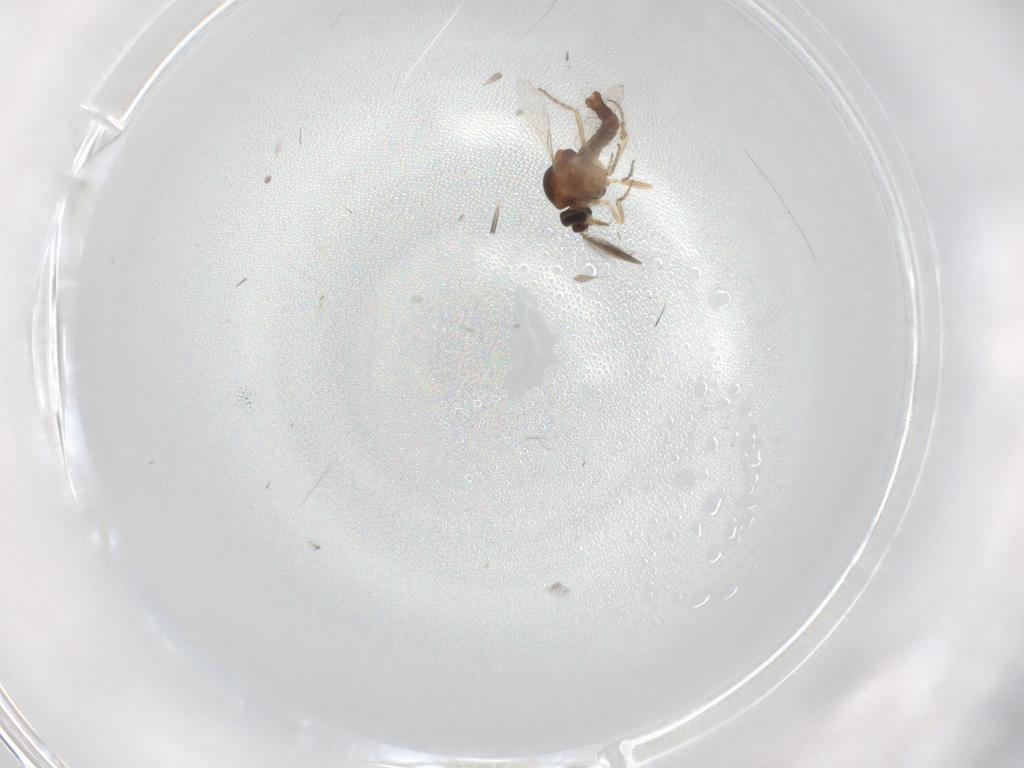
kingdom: Animalia
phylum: Arthropoda
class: Insecta
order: Diptera
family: Ceratopogonidae
